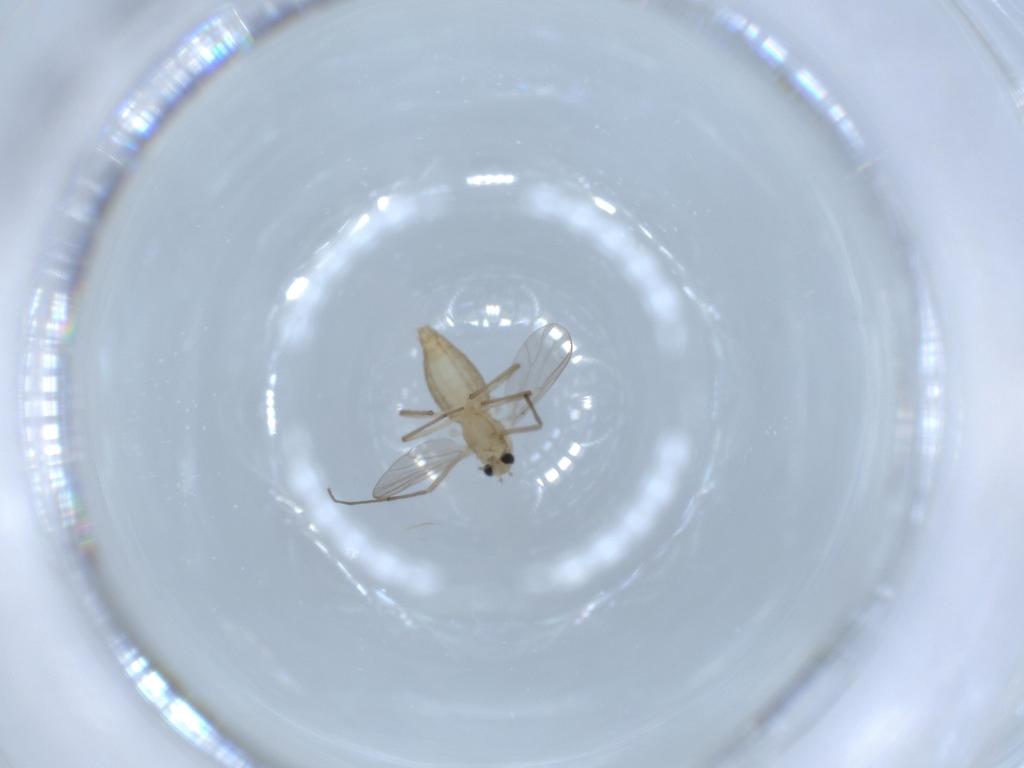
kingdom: Animalia
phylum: Arthropoda
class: Insecta
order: Diptera
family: Chironomidae
